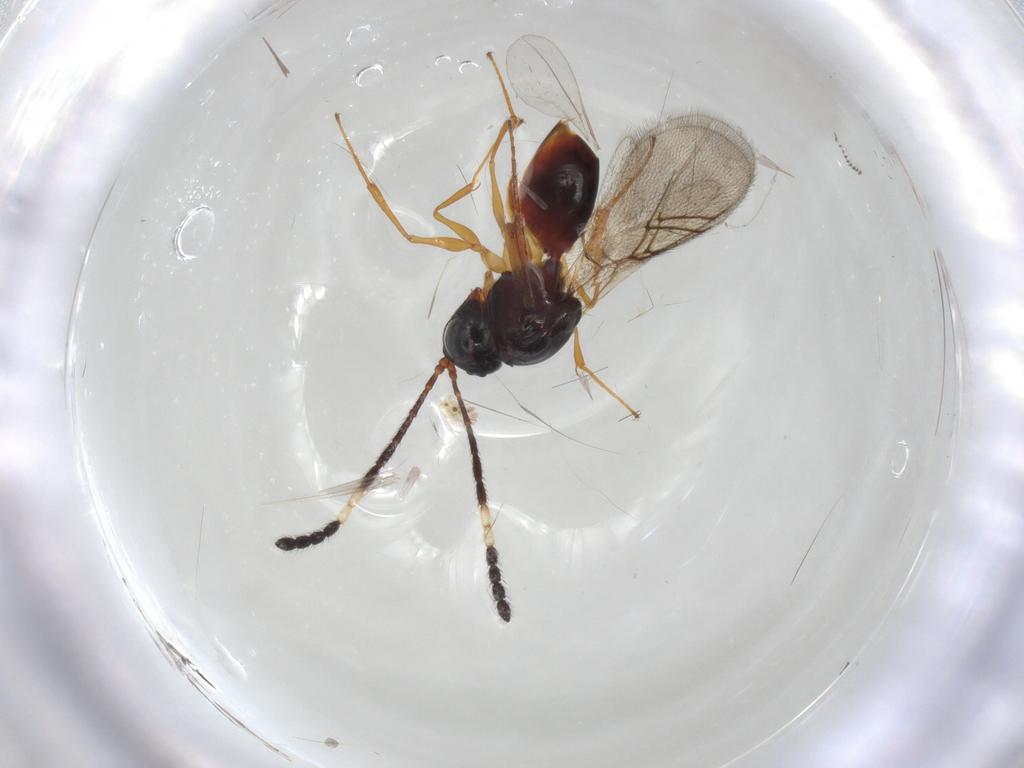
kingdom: Animalia
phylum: Arthropoda
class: Insecta
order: Hymenoptera
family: Figitidae
